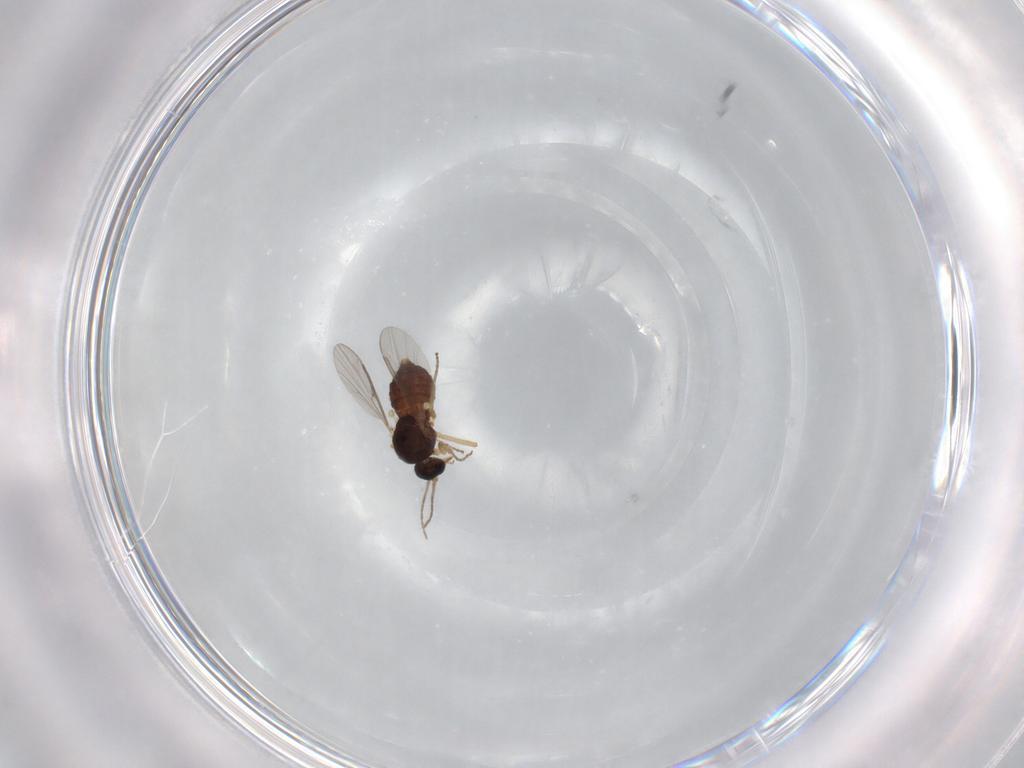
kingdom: Animalia
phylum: Arthropoda
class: Insecta
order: Diptera
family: Ceratopogonidae
